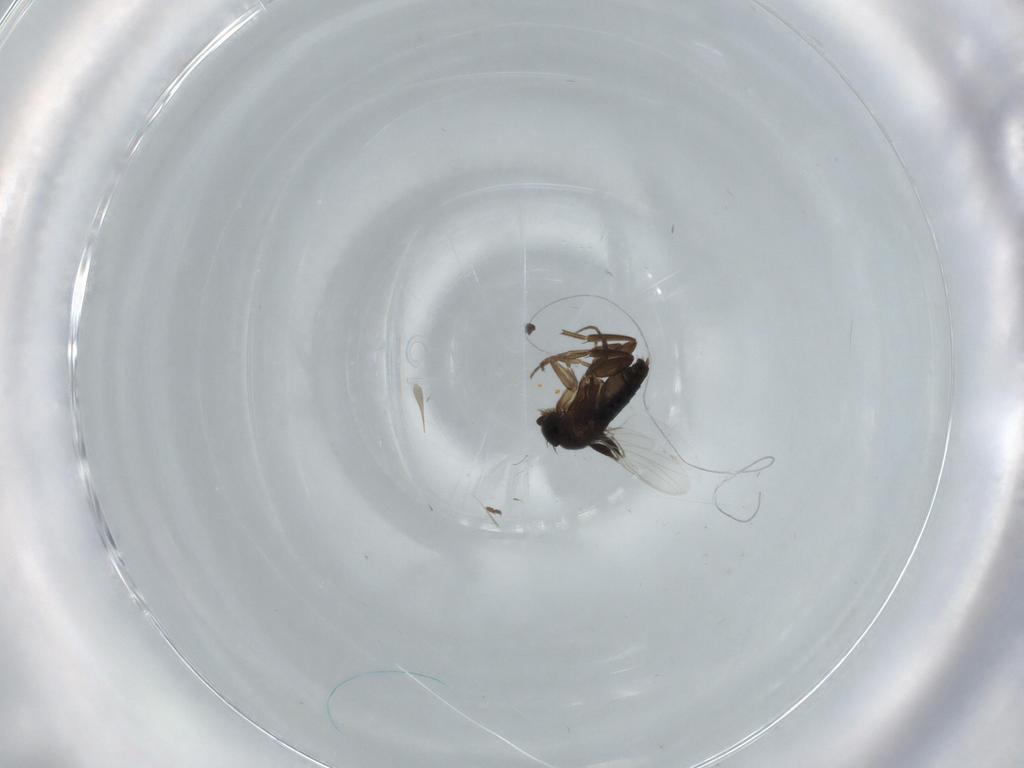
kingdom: Animalia
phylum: Arthropoda
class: Insecta
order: Diptera
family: Phoridae
